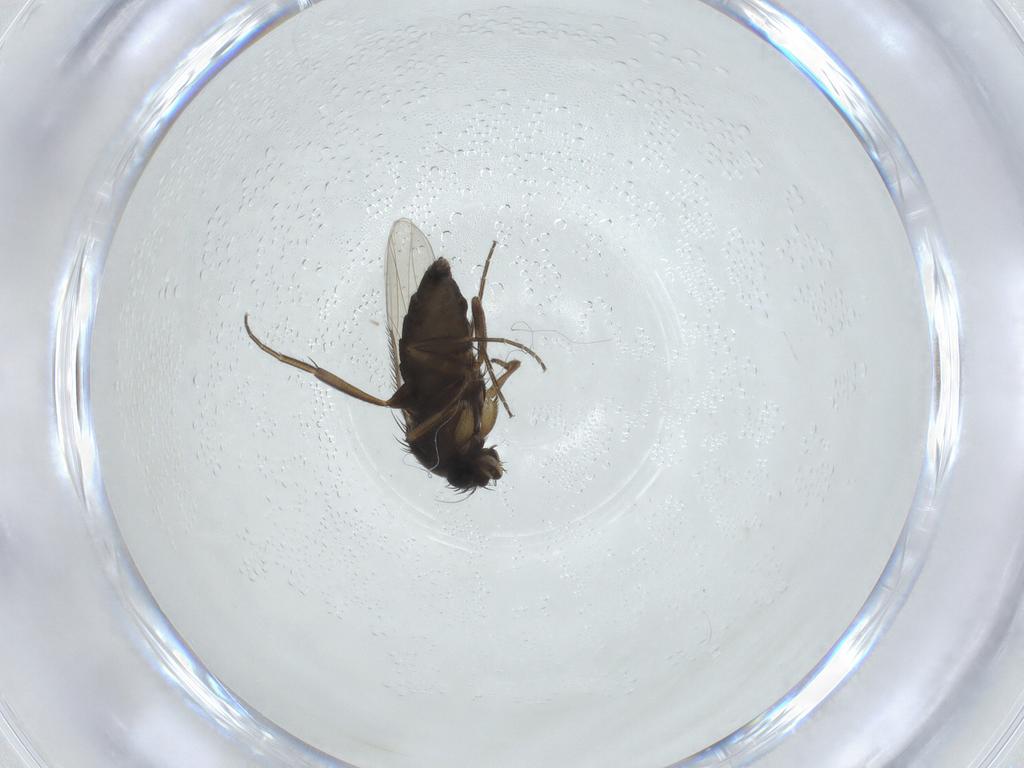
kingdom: Animalia
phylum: Arthropoda
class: Insecta
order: Diptera
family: Phoridae
